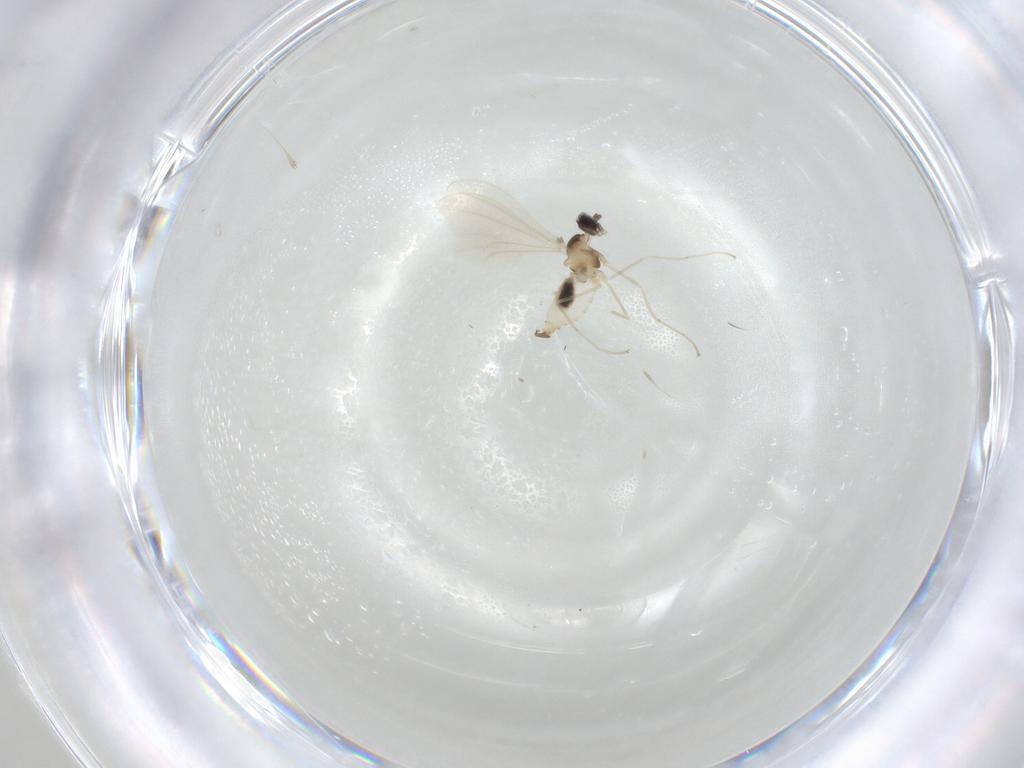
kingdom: Animalia
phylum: Arthropoda
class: Insecta
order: Diptera
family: Cecidomyiidae
